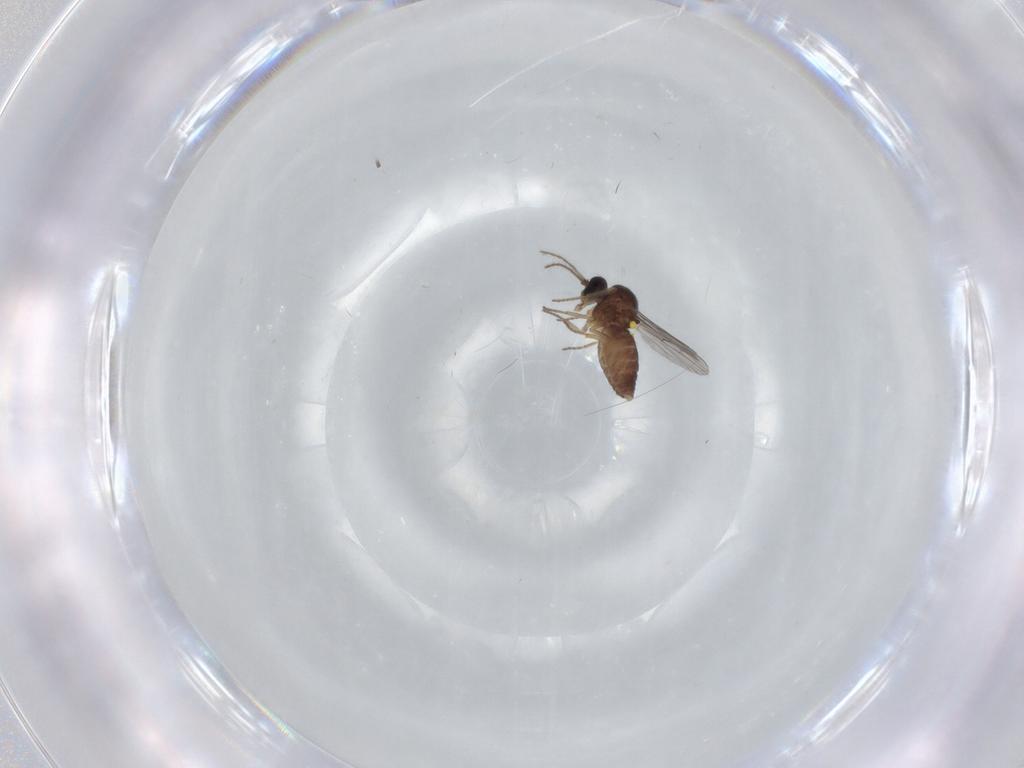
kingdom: Animalia
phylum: Arthropoda
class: Insecta
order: Diptera
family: Ceratopogonidae
